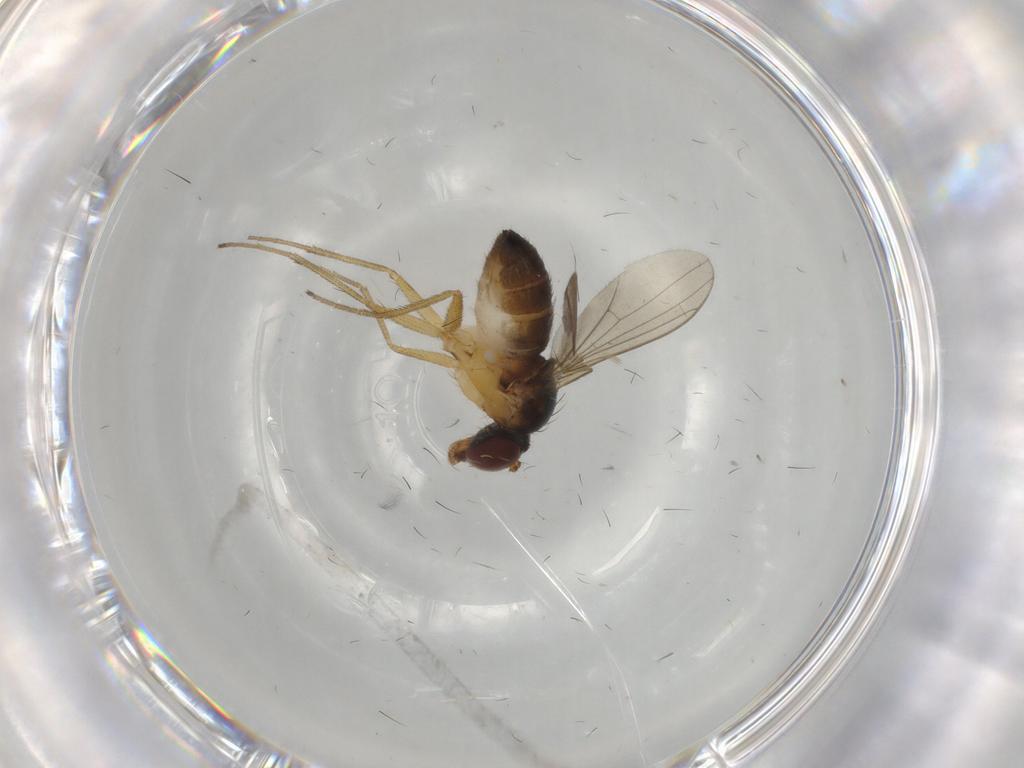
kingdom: Animalia
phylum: Arthropoda
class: Insecta
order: Diptera
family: Dolichopodidae
